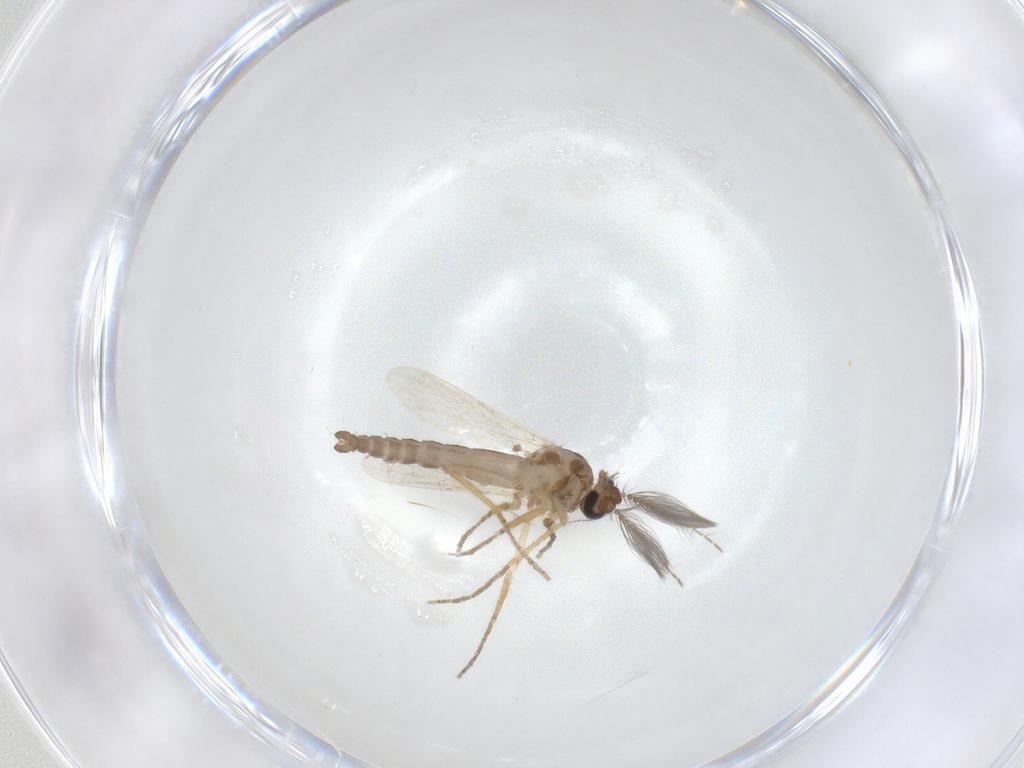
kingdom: Animalia
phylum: Arthropoda
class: Insecta
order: Diptera
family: Ceratopogonidae
